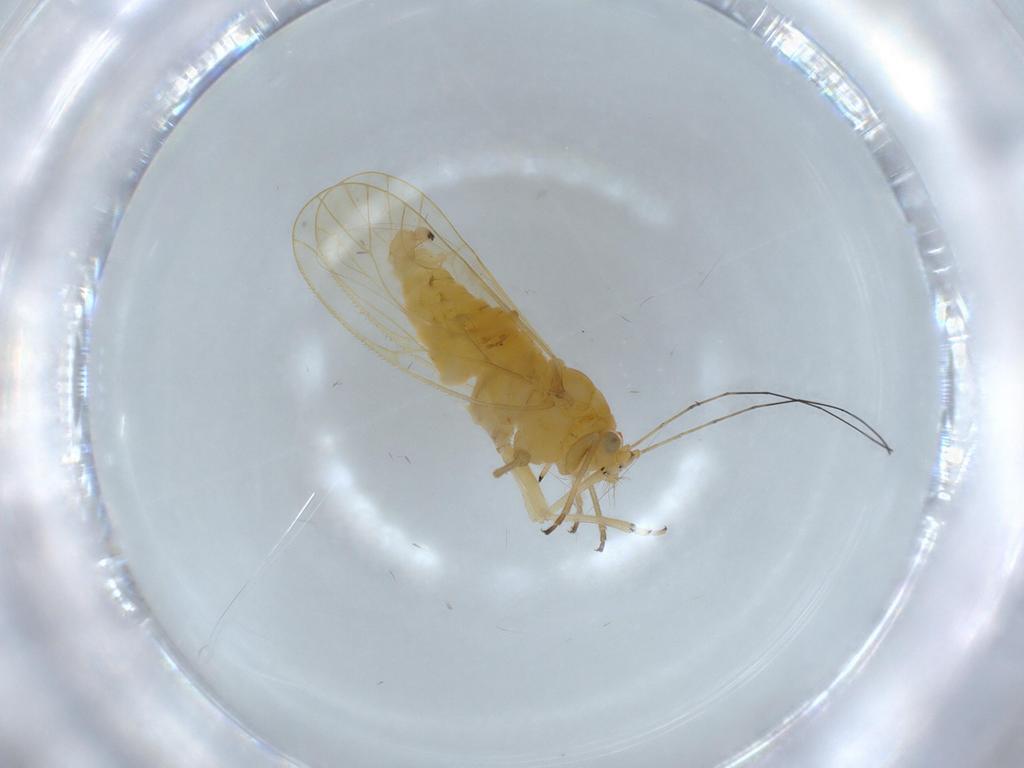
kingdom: Animalia
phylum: Arthropoda
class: Insecta
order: Hemiptera
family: Psyllidae
